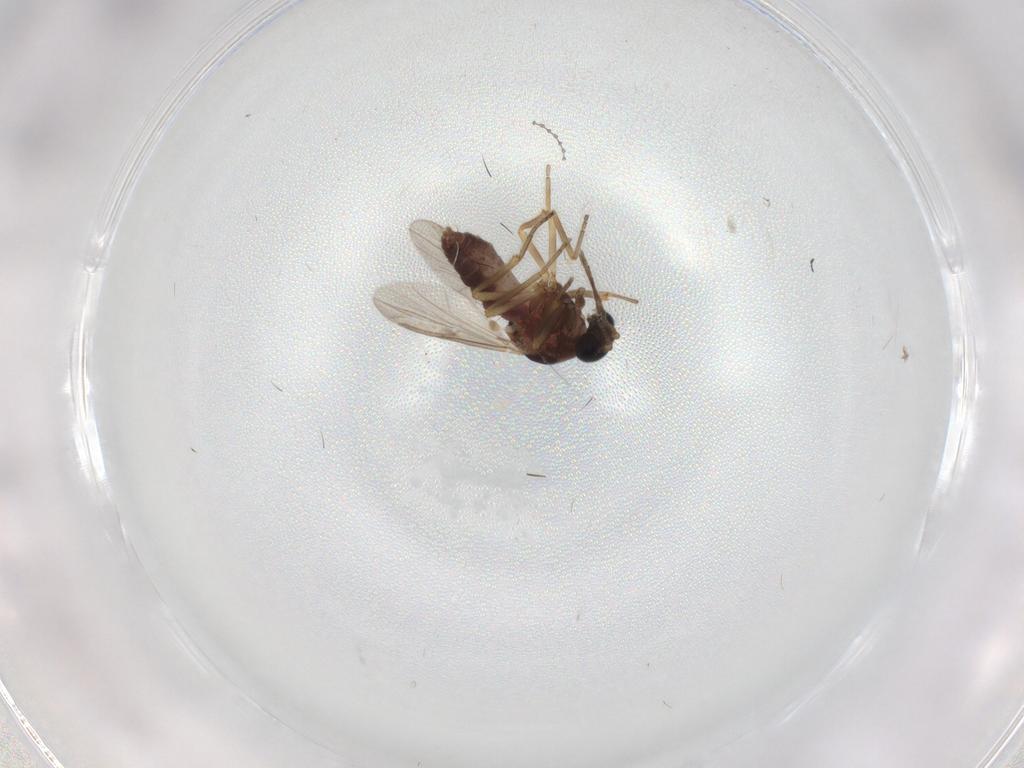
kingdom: Animalia
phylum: Arthropoda
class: Insecta
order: Diptera
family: Ceratopogonidae
